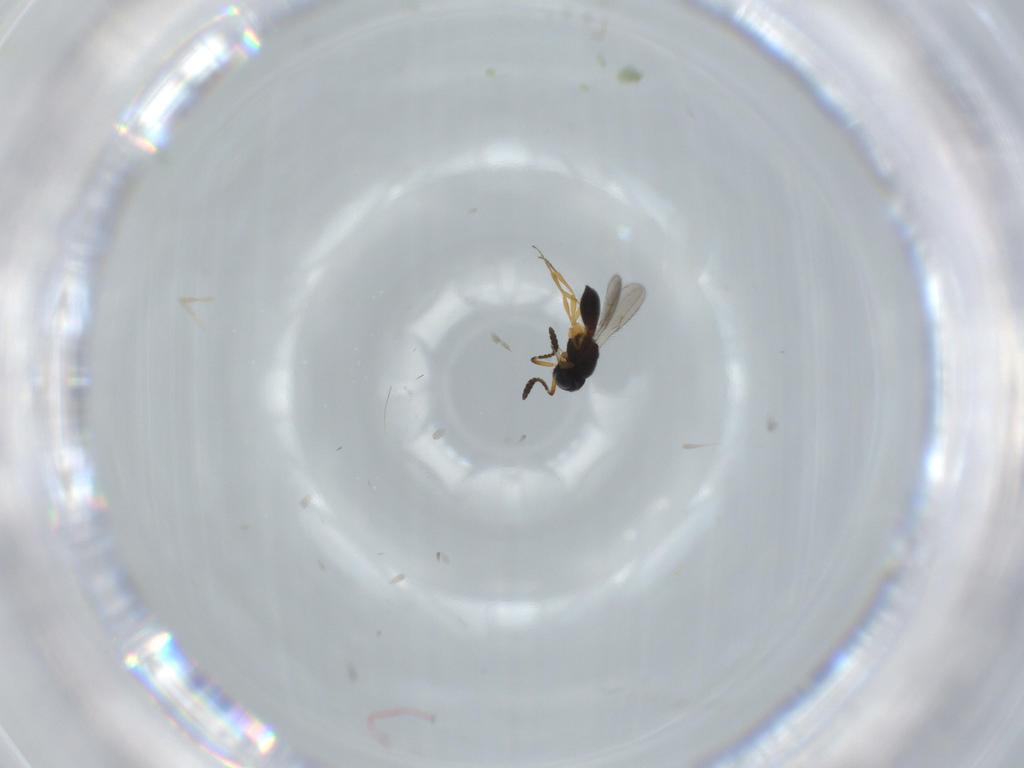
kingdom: Animalia
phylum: Arthropoda
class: Insecta
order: Hymenoptera
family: Scelionidae
